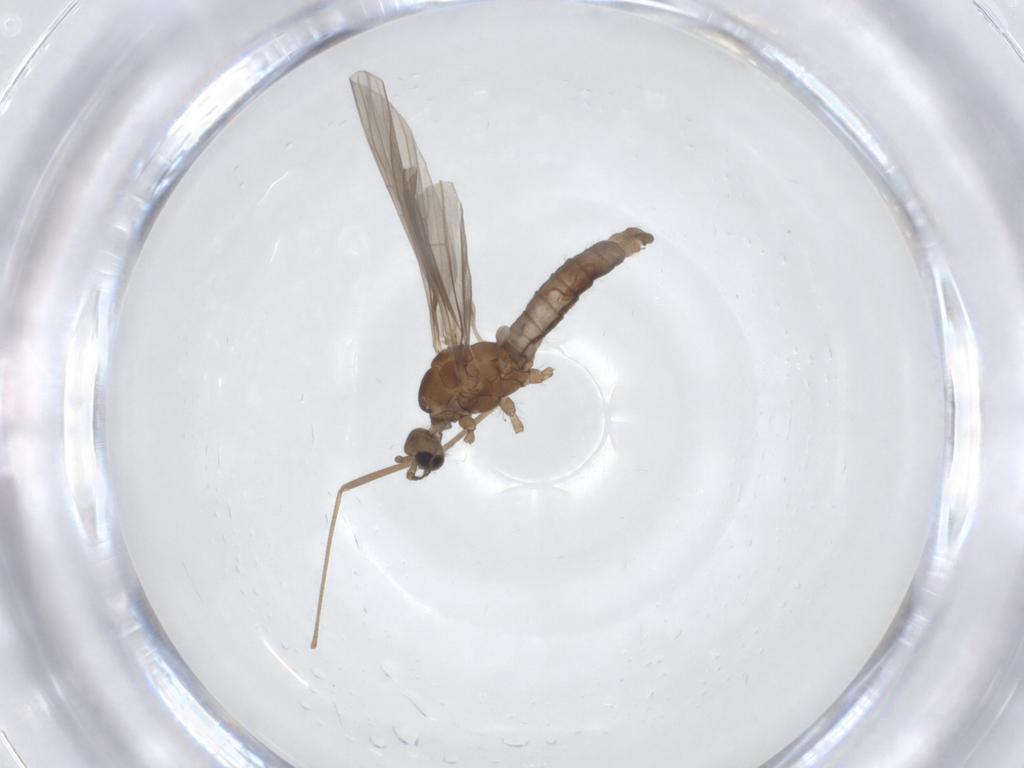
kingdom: Animalia
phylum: Arthropoda
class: Insecta
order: Diptera
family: Limoniidae
